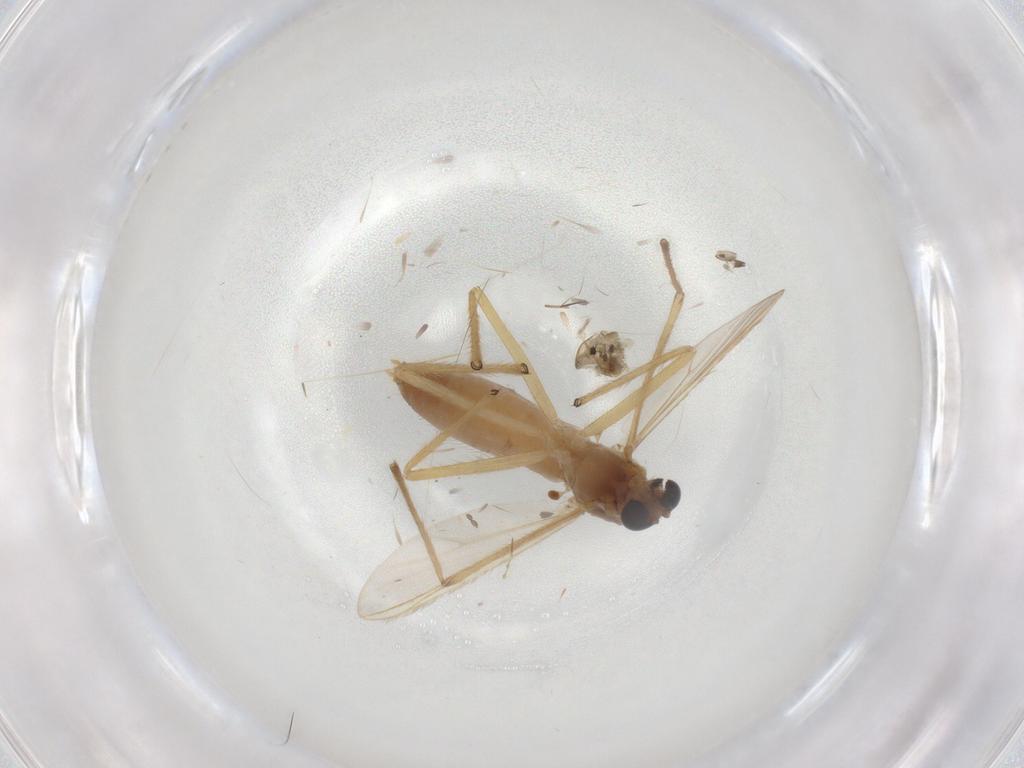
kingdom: Animalia
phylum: Arthropoda
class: Insecta
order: Diptera
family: Chironomidae
